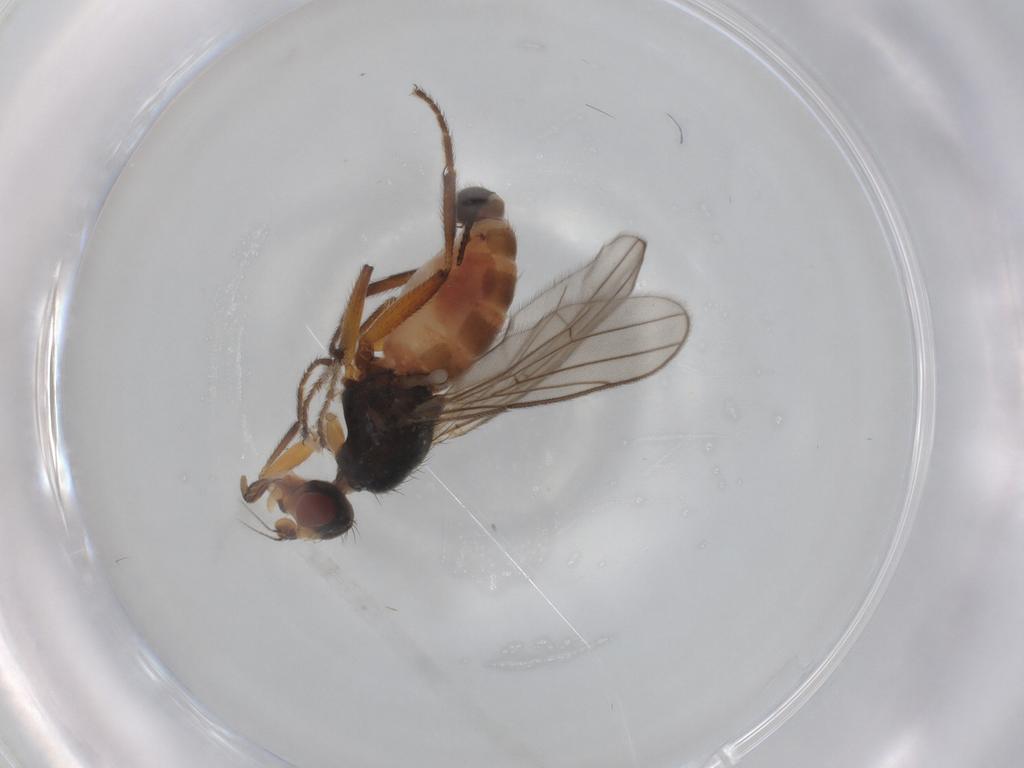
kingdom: Animalia
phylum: Arthropoda
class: Insecta
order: Diptera
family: Chloropidae
